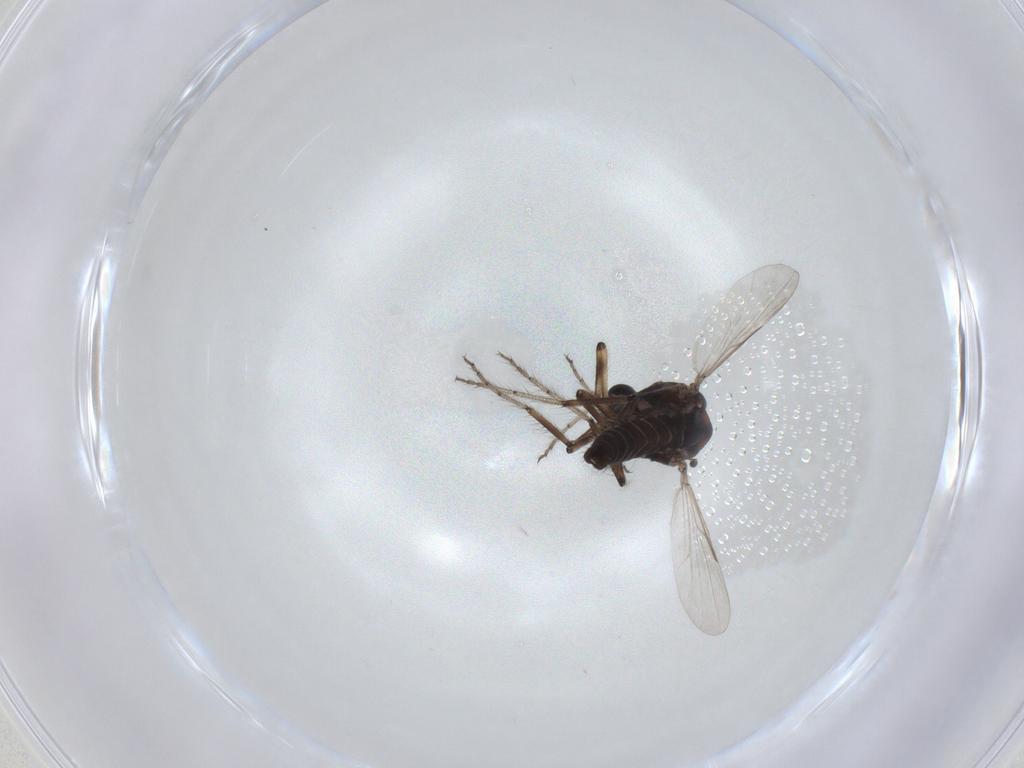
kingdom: Animalia
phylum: Arthropoda
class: Insecta
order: Diptera
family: Ceratopogonidae
